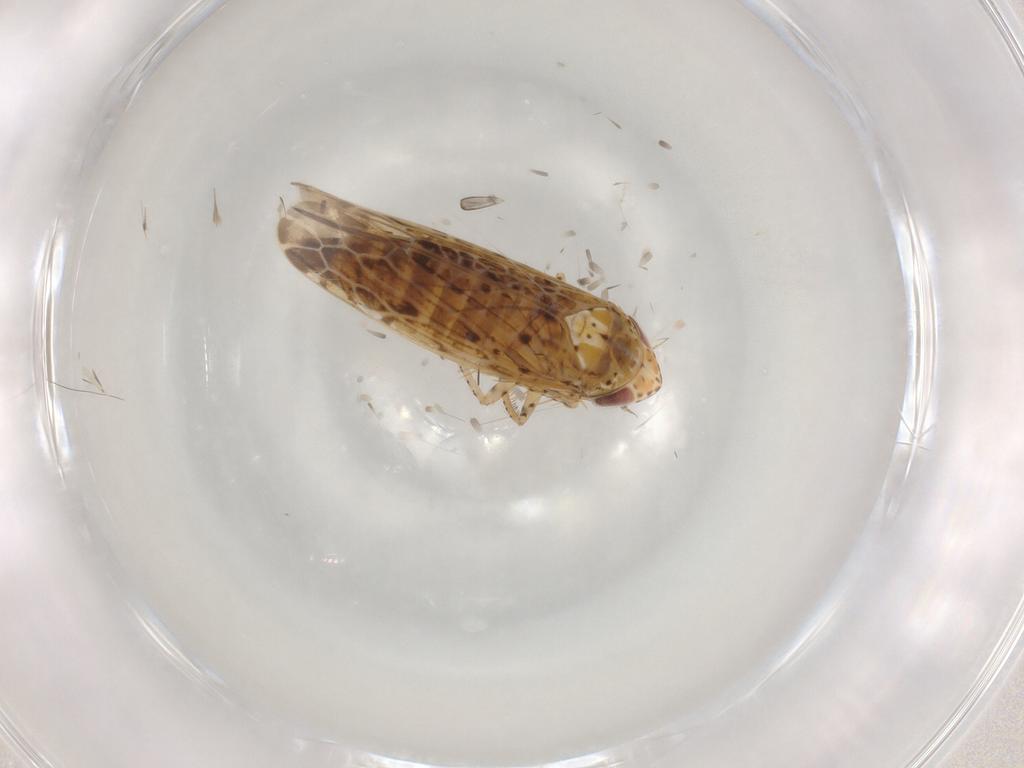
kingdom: Animalia
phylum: Arthropoda
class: Insecta
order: Hemiptera
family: Cicadellidae
